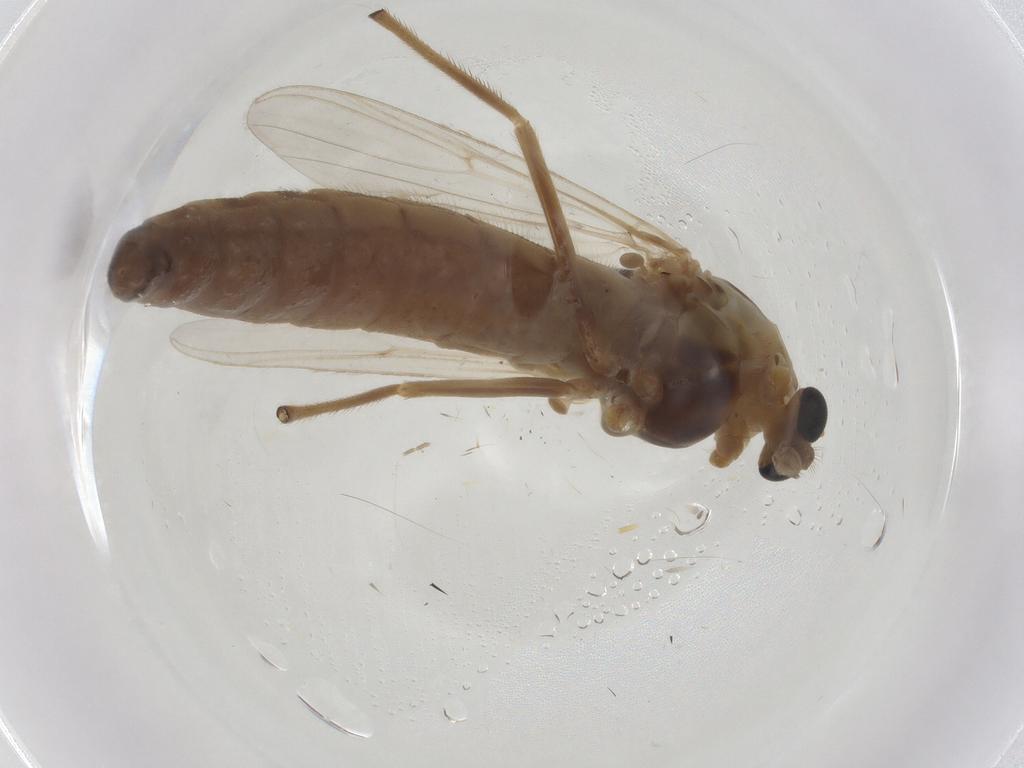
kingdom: Animalia
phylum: Arthropoda
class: Insecta
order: Diptera
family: Chironomidae
